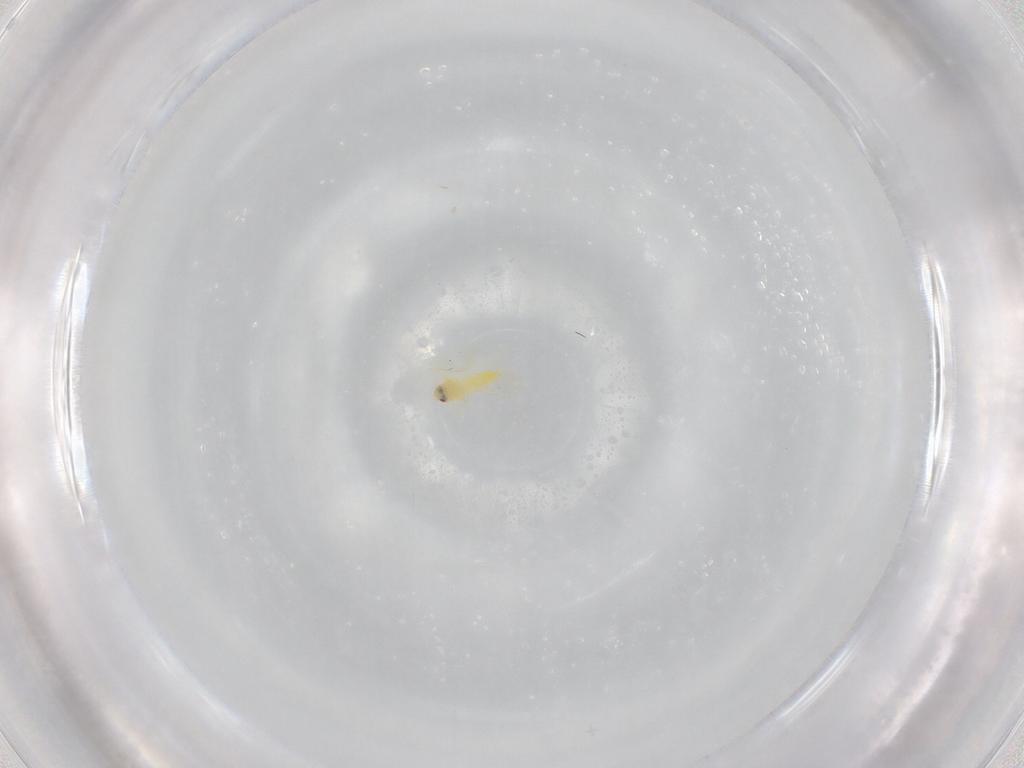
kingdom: Animalia
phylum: Arthropoda
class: Insecta
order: Hemiptera
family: Aleyrodidae
